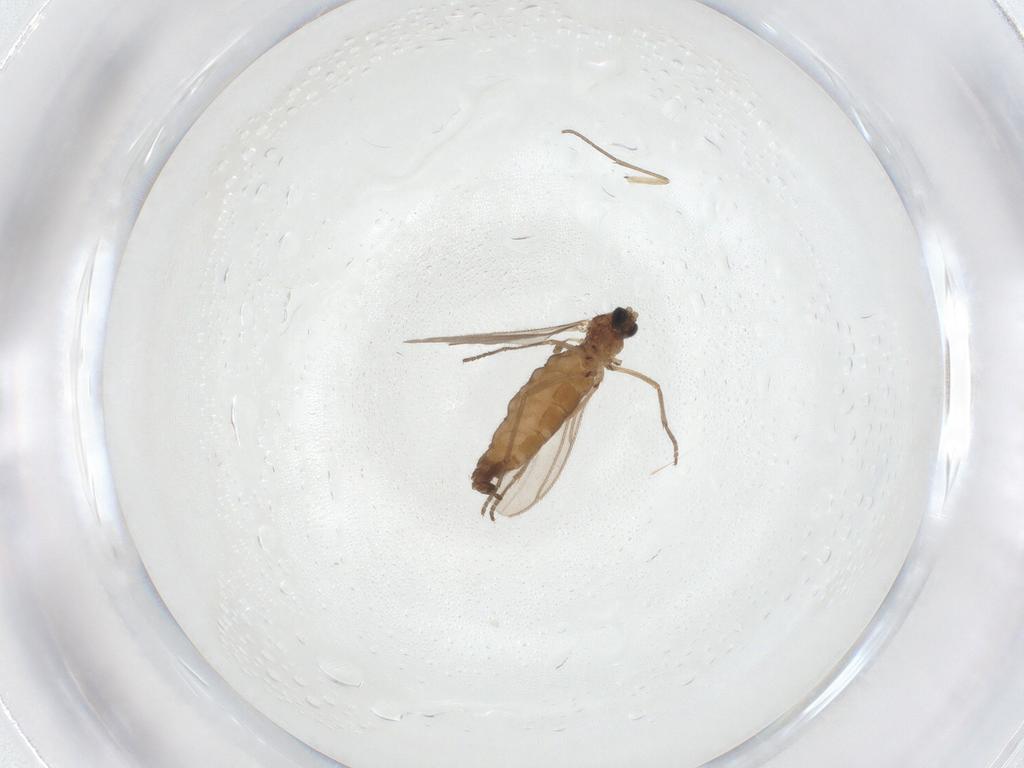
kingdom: Animalia
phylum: Arthropoda
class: Insecta
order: Diptera
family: Sciaridae
